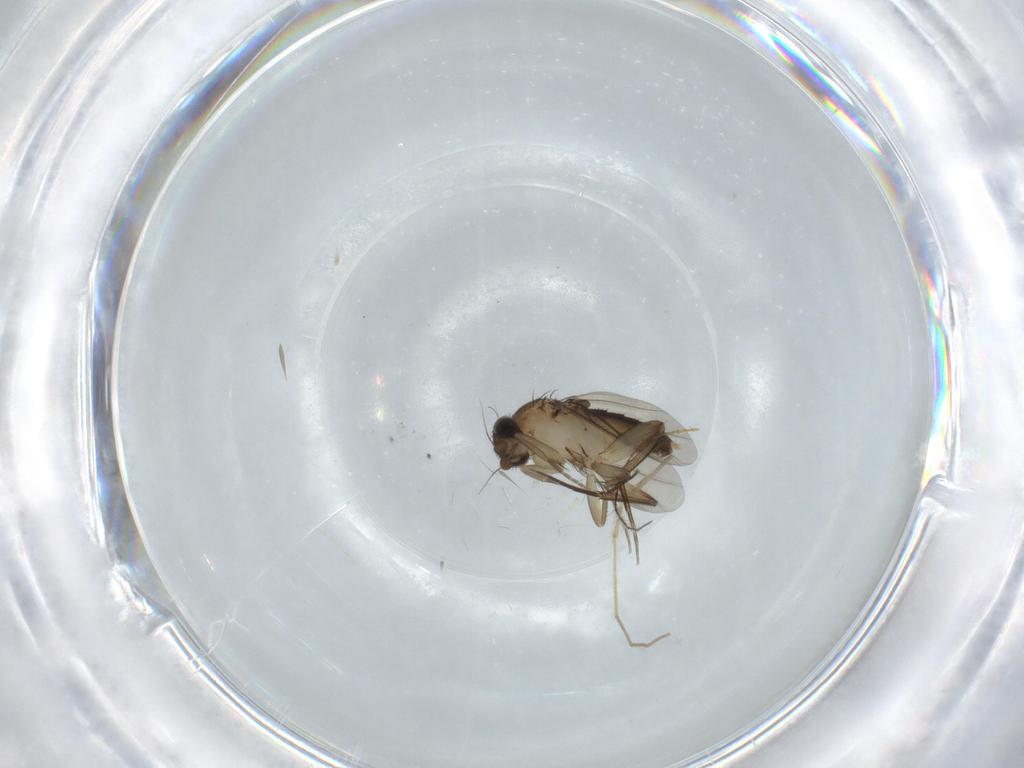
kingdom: Animalia
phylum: Arthropoda
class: Insecta
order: Diptera
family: Phoridae
